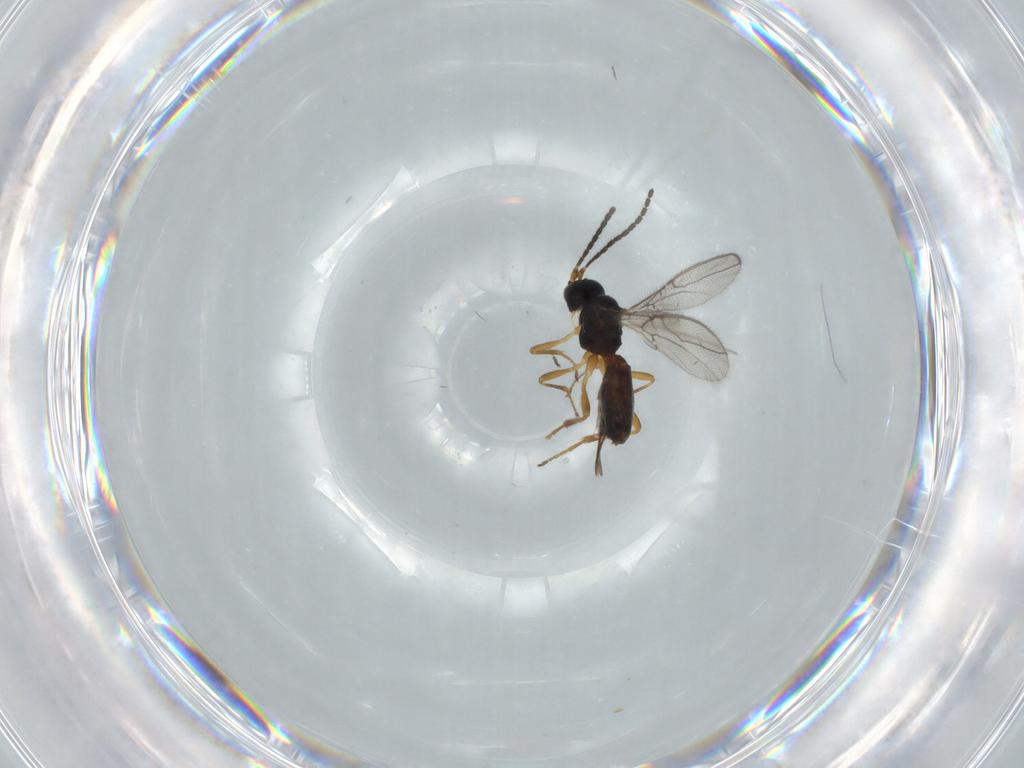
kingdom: Animalia
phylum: Arthropoda
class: Insecta
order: Hymenoptera
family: Braconidae
